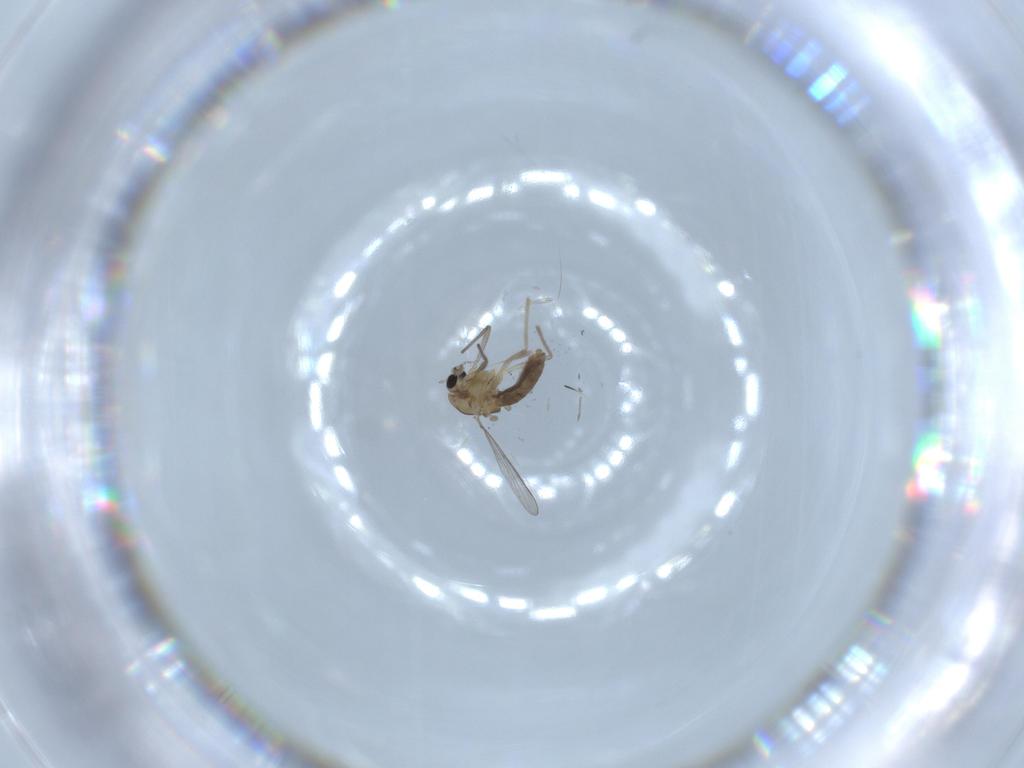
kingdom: Animalia
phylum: Arthropoda
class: Insecta
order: Diptera
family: Chironomidae
